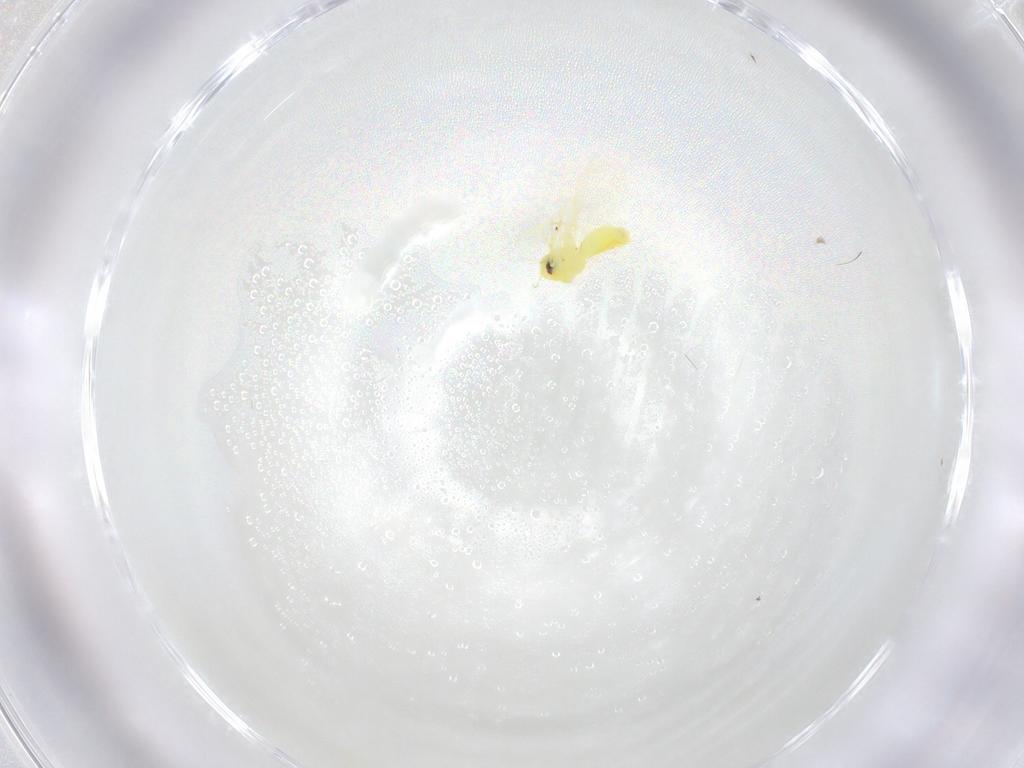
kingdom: Animalia
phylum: Arthropoda
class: Insecta
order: Hemiptera
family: Aleyrodidae
